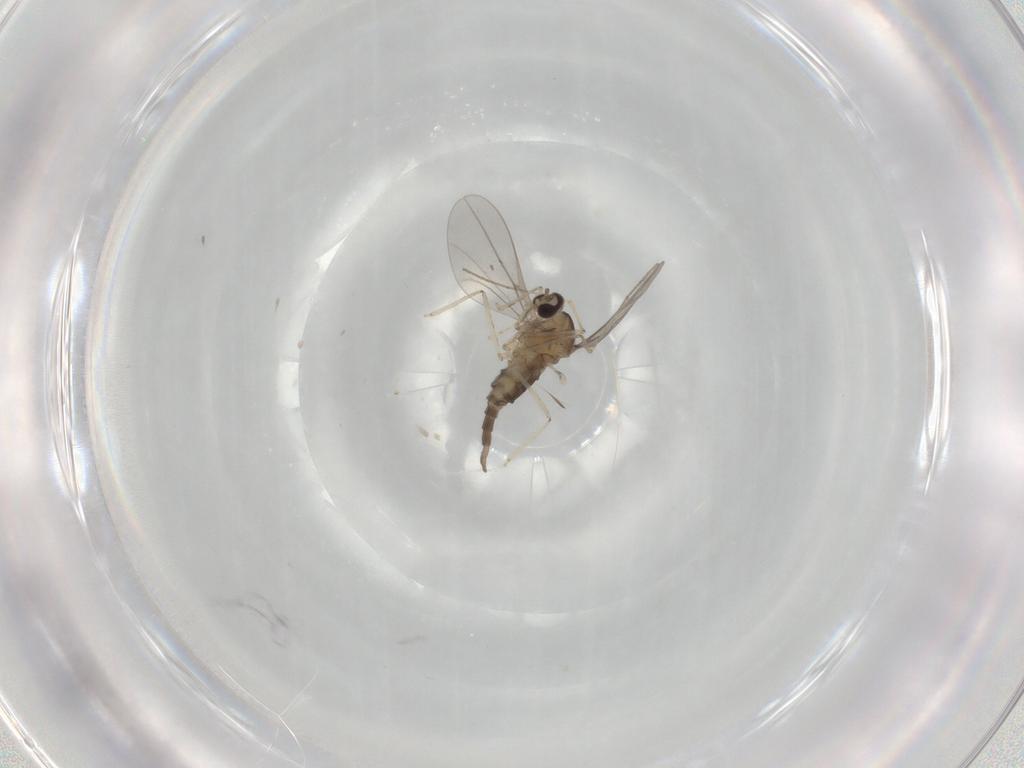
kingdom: Animalia
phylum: Arthropoda
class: Insecta
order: Diptera
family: Cecidomyiidae
